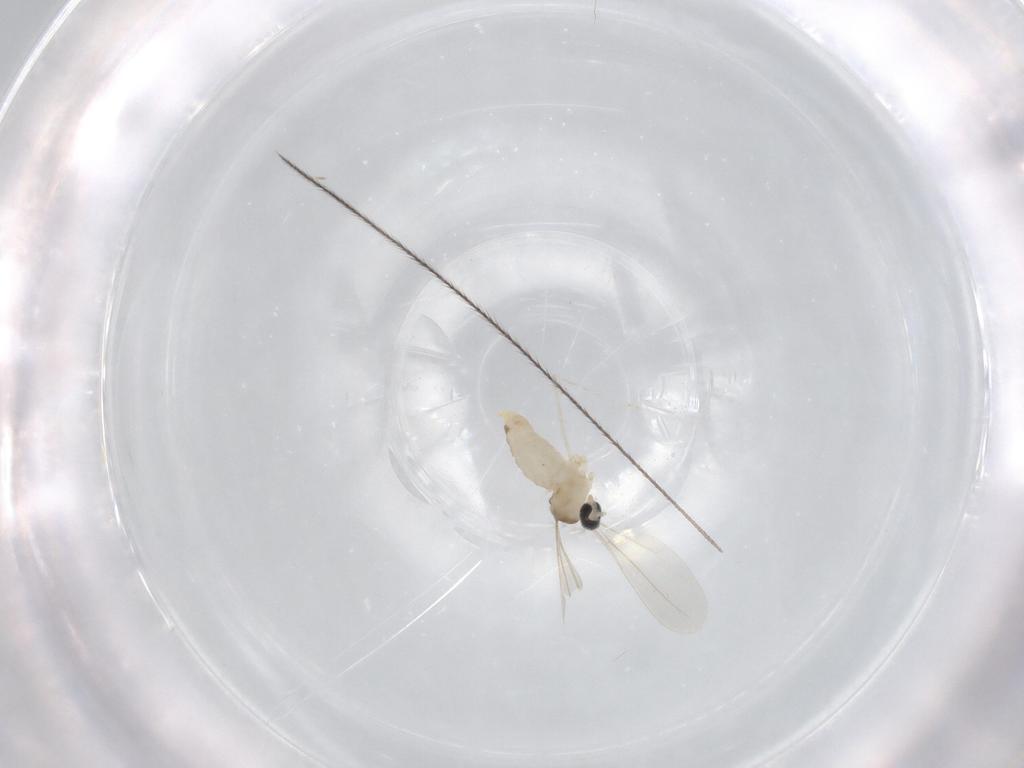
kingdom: Animalia
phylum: Arthropoda
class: Insecta
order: Diptera
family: Cecidomyiidae
